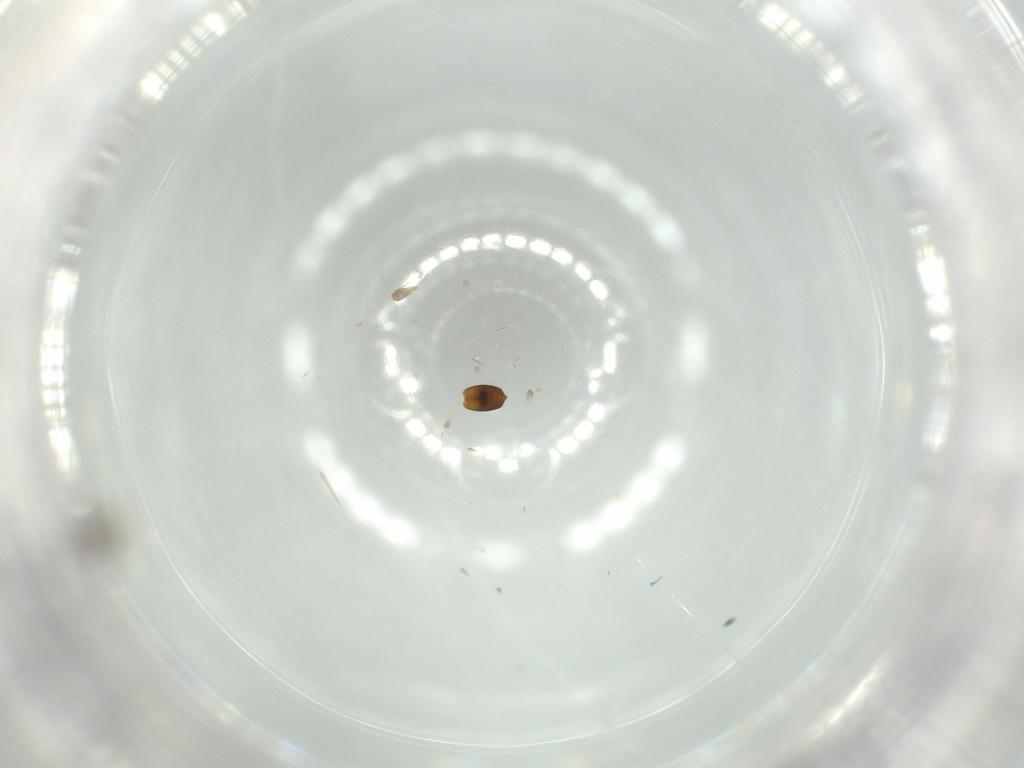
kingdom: Animalia
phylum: Arthropoda
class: Insecta
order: Hymenoptera
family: Diapriidae
